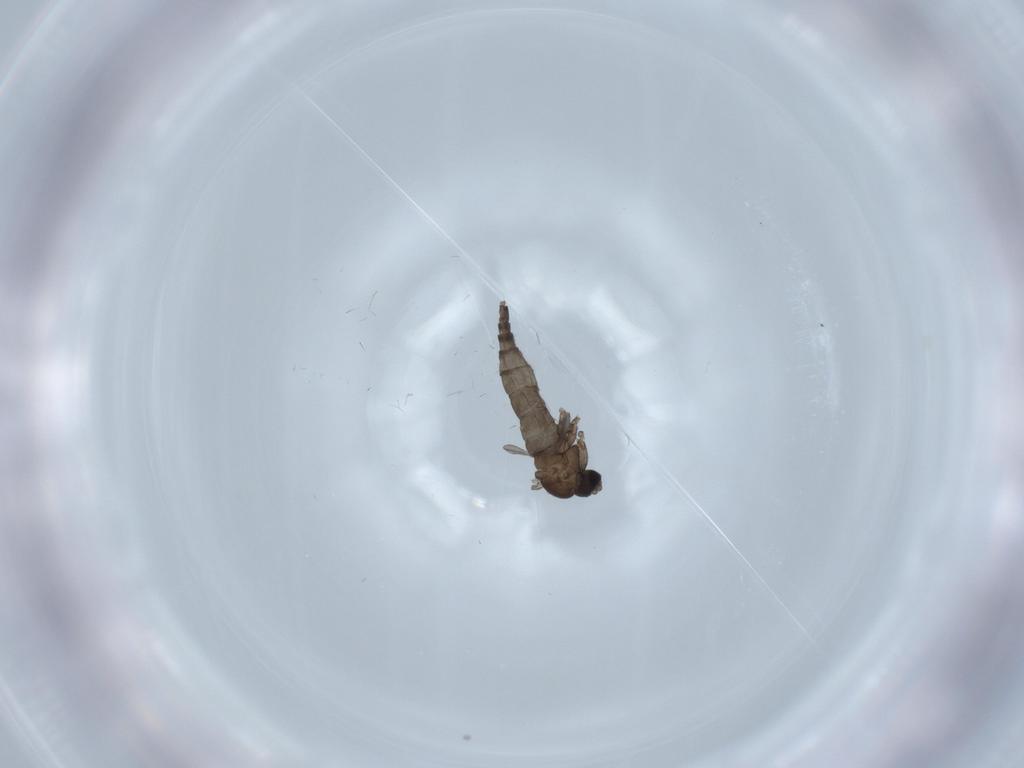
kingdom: Animalia
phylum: Arthropoda
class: Insecta
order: Diptera
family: Sciaridae
